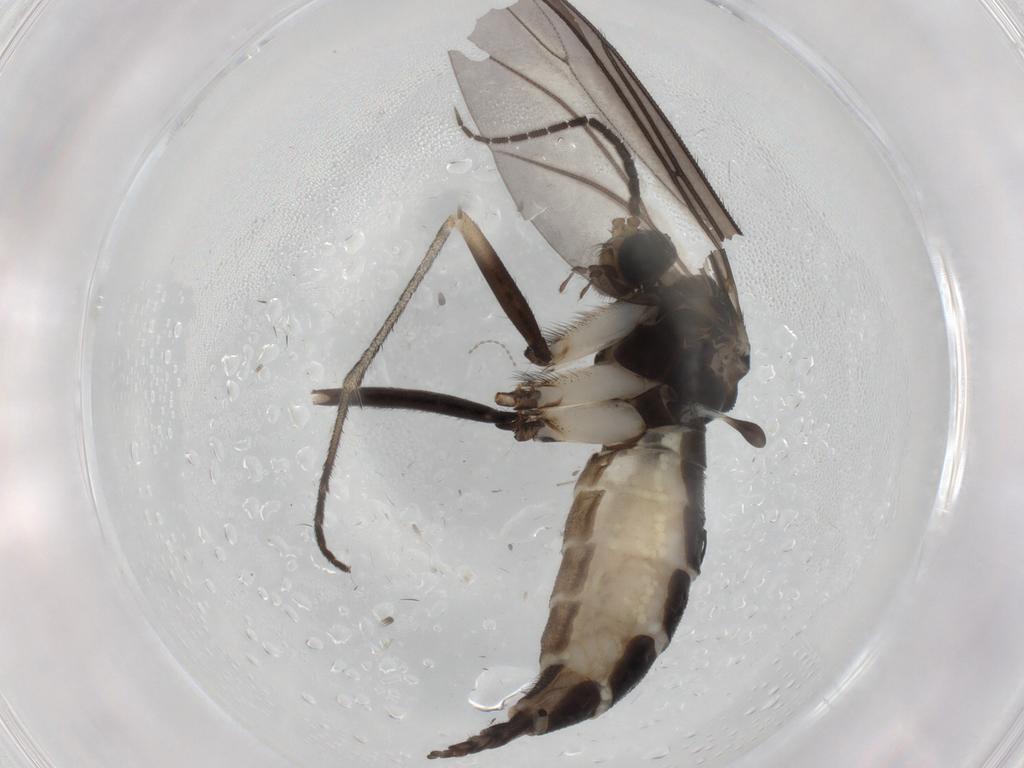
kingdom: Animalia
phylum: Arthropoda
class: Insecta
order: Diptera
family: Sciaridae
